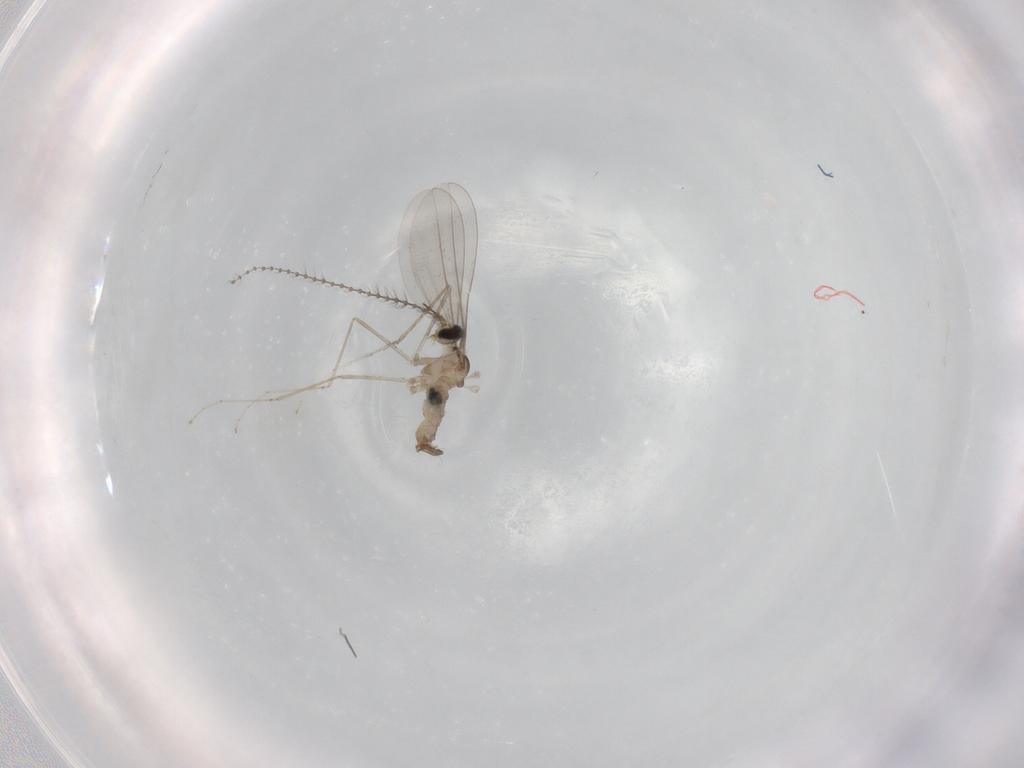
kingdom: Animalia
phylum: Arthropoda
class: Insecta
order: Diptera
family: Cecidomyiidae
